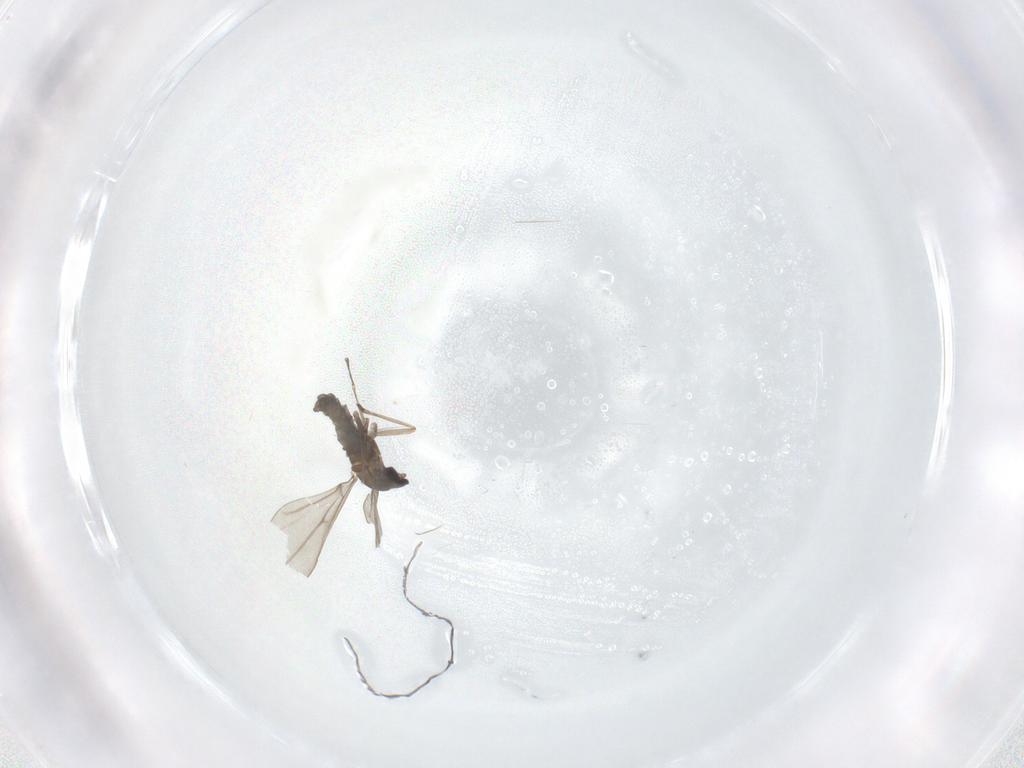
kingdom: Animalia
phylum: Arthropoda
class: Insecta
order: Diptera
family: Cecidomyiidae
